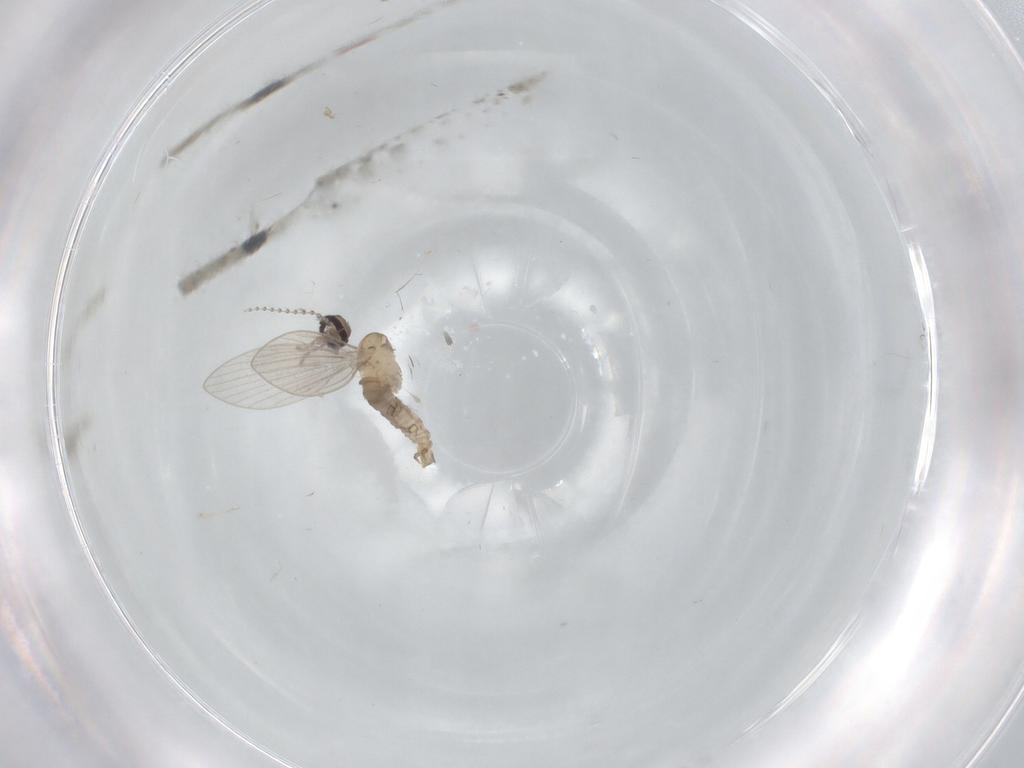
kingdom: Animalia
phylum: Arthropoda
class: Insecta
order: Diptera
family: Psychodidae
